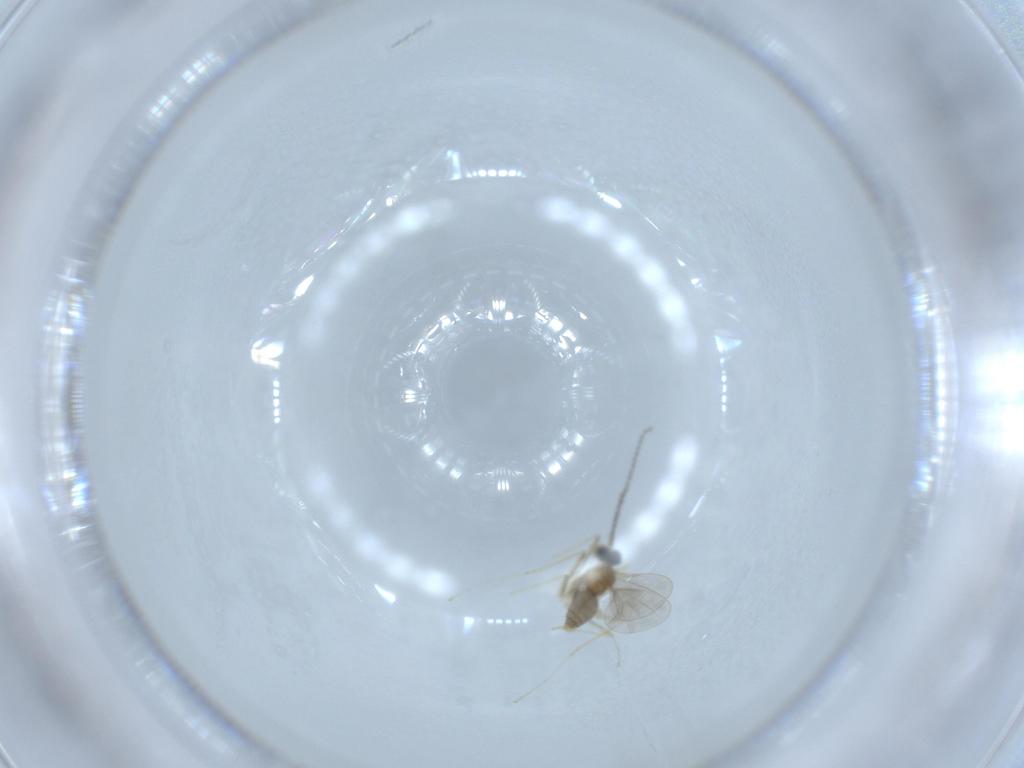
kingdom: Animalia
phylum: Arthropoda
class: Insecta
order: Diptera
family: Cecidomyiidae
